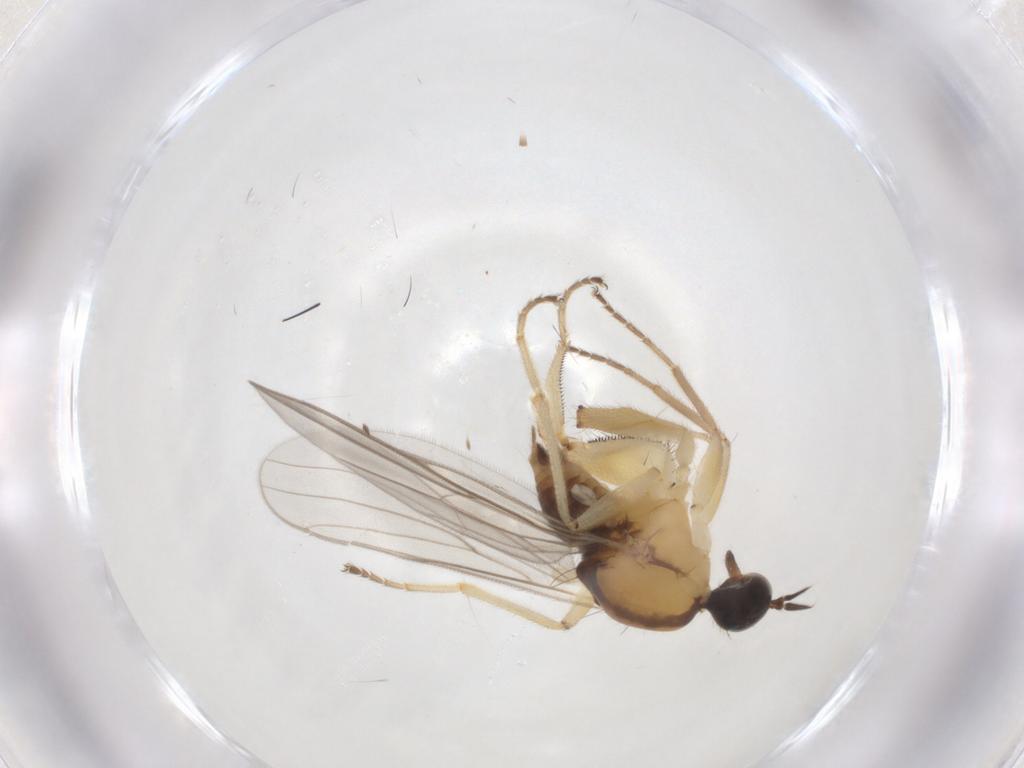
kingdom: Animalia
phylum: Arthropoda
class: Insecta
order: Diptera
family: Hybotidae
